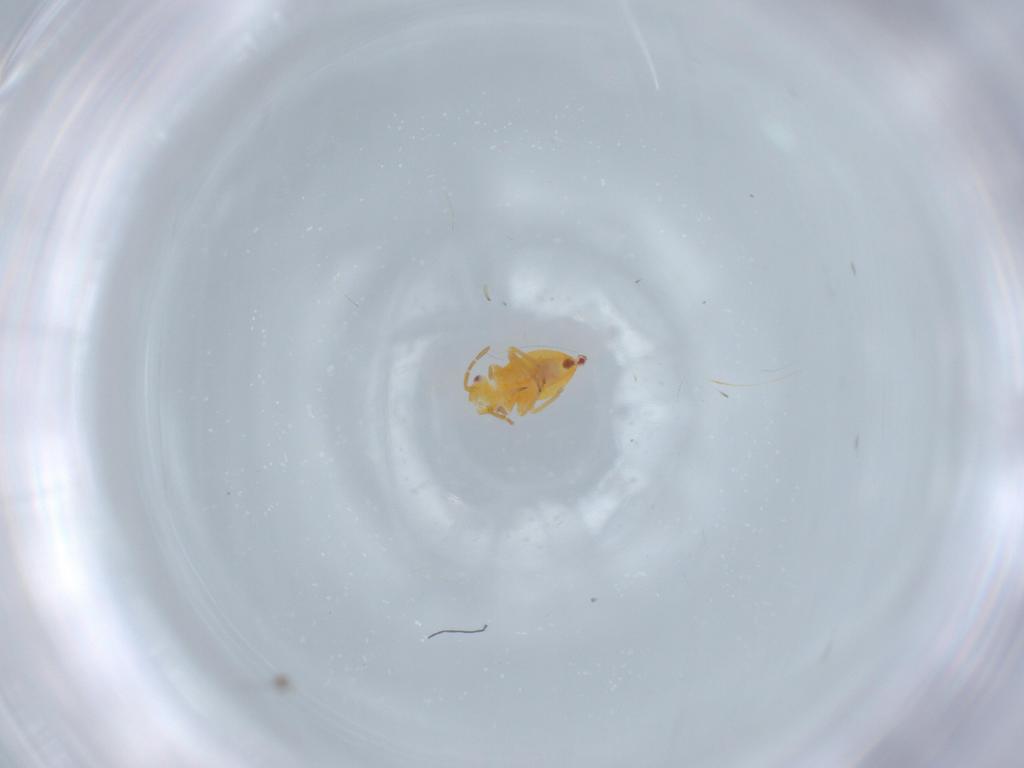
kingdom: Animalia
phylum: Arthropoda
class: Insecta
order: Hemiptera
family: Miridae
